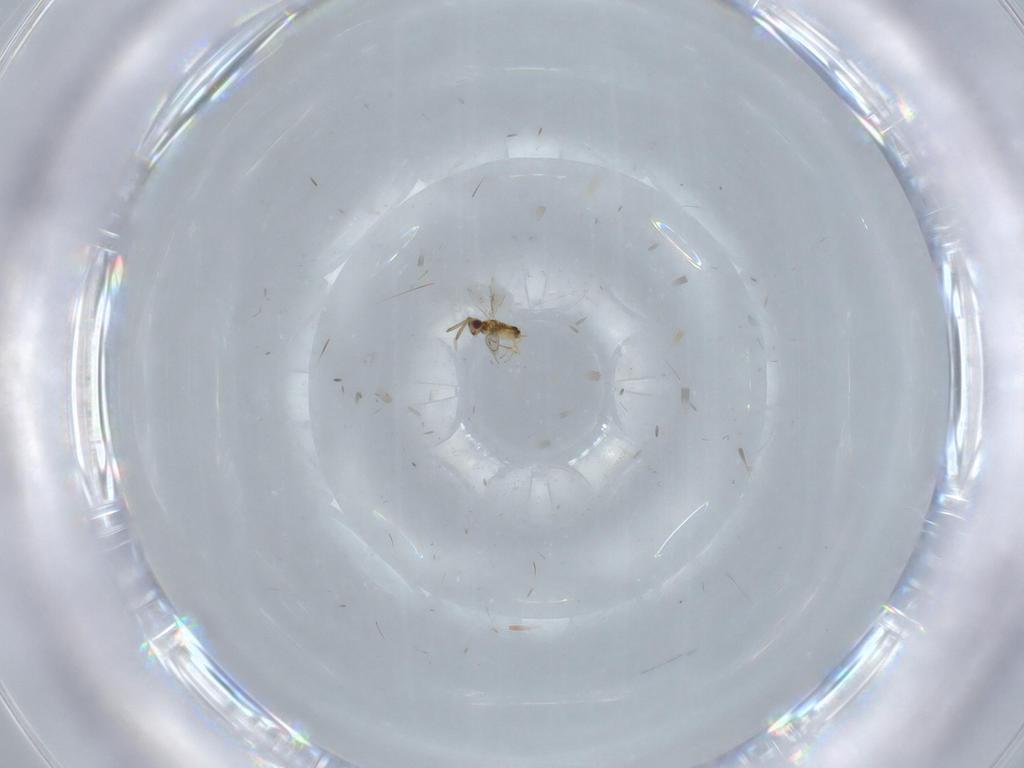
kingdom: Animalia
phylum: Arthropoda
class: Insecta
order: Hymenoptera
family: Aphelinidae
